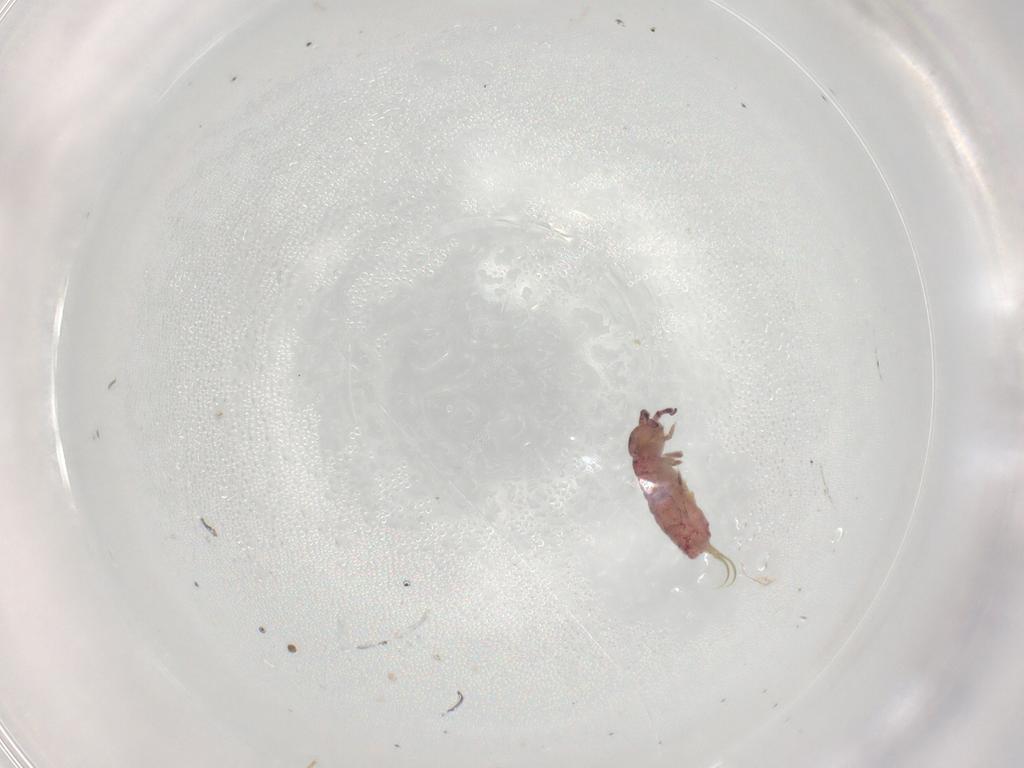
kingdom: Animalia
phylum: Arthropoda
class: Collembola
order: Entomobryomorpha
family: Isotomidae
